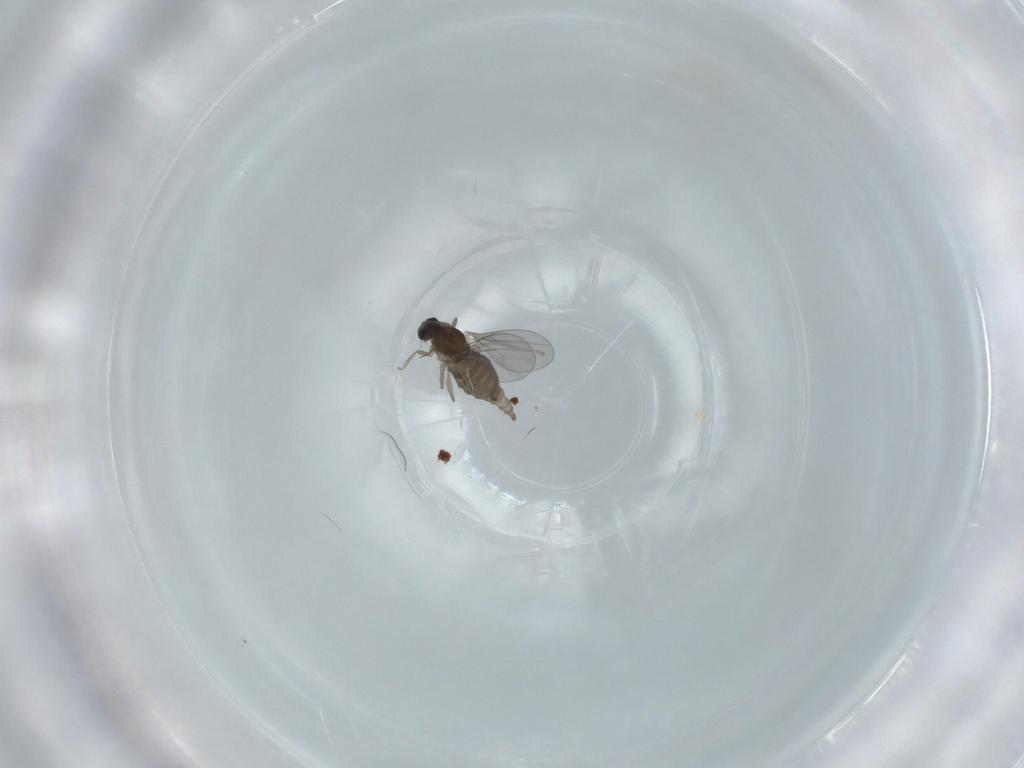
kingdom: Animalia
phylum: Arthropoda
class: Insecta
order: Diptera
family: Cecidomyiidae
